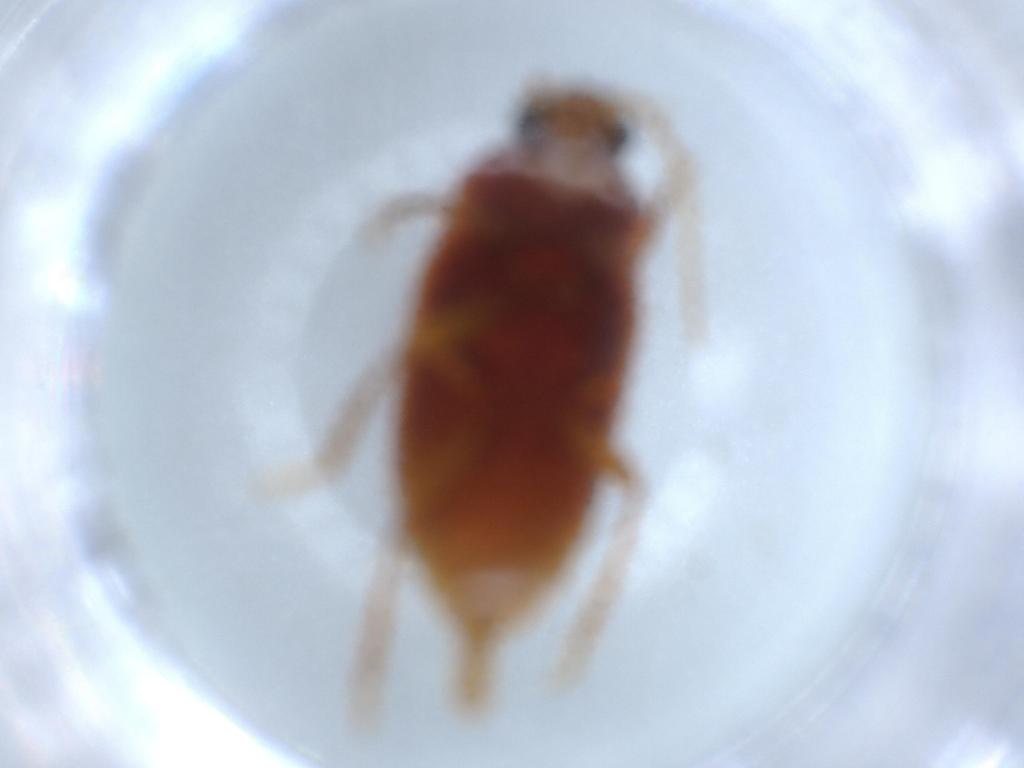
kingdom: Animalia
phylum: Arthropoda
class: Insecta
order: Coleoptera
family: Ptilodactylidae
